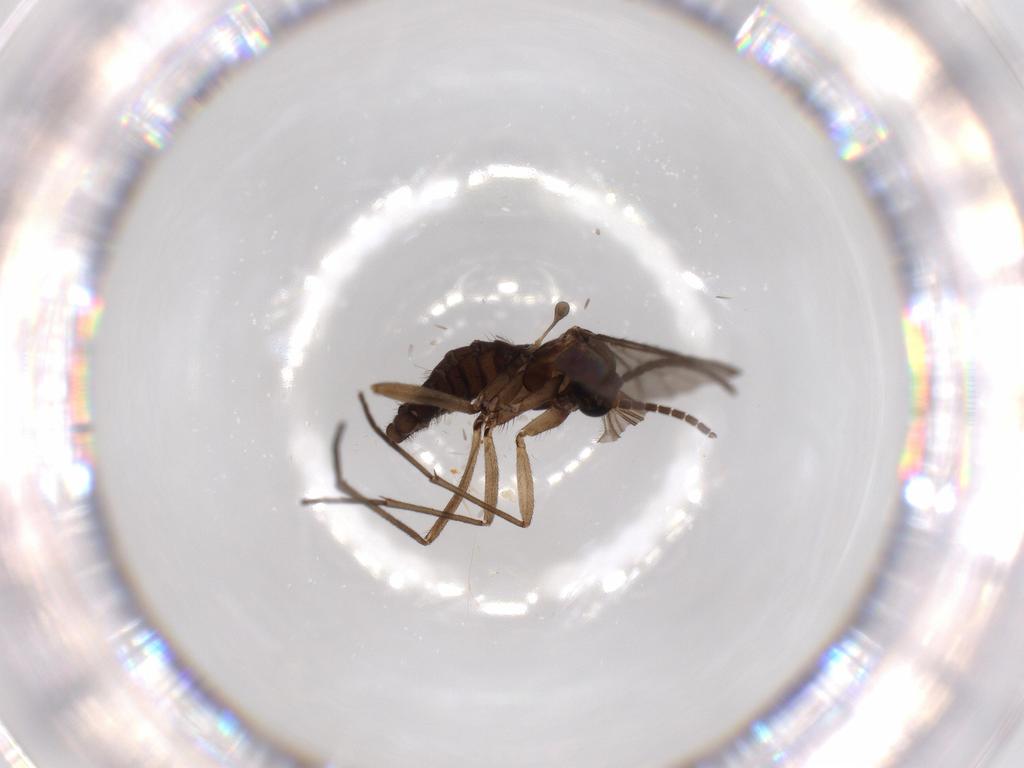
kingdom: Animalia
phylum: Arthropoda
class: Insecta
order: Diptera
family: Sciaridae
